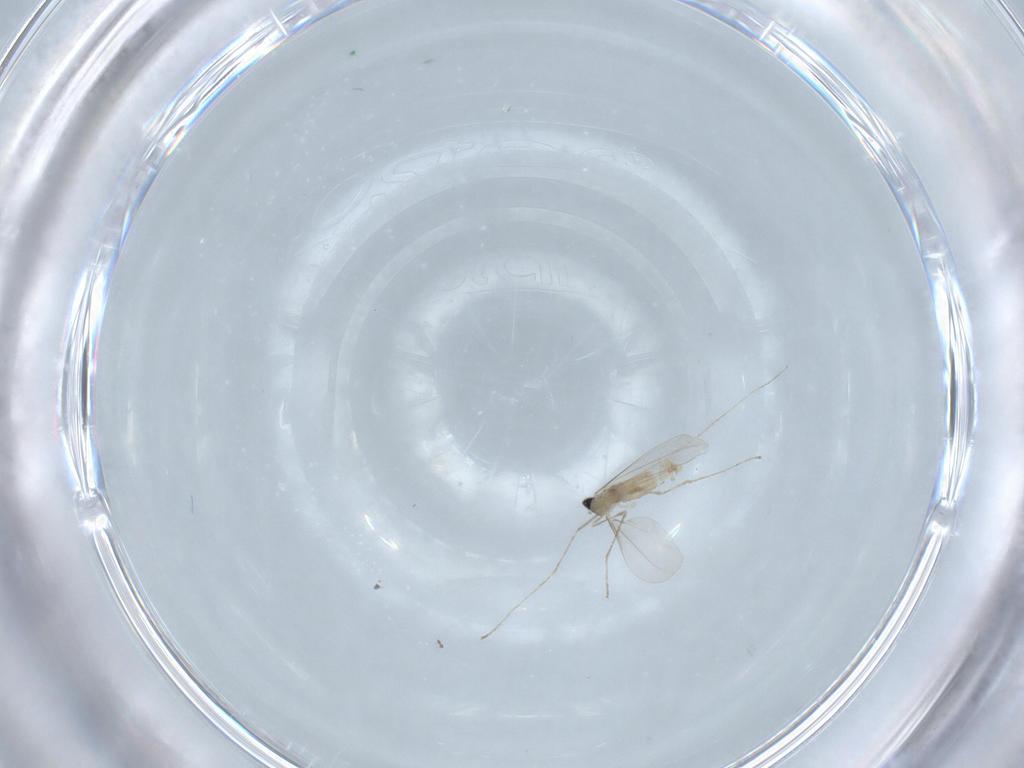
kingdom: Animalia
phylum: Arthropoda
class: Insecta
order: Diptera
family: Cecidomyiidae
